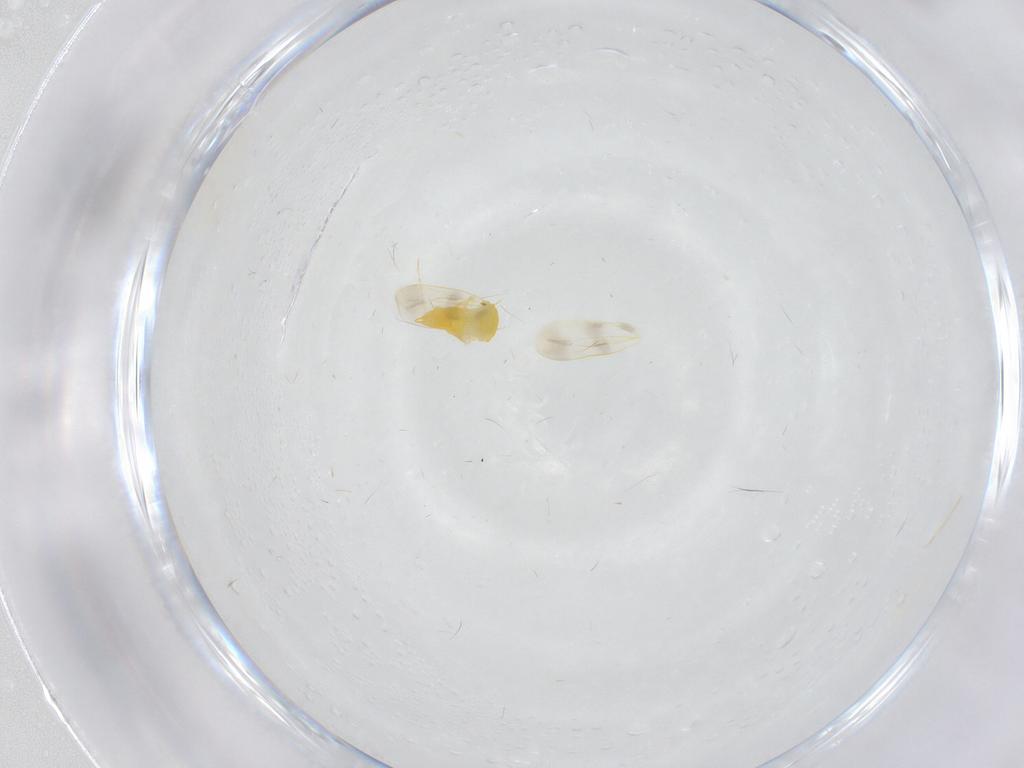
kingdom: Animalia
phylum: Arthropoda
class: Insecta
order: Hemiptera
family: Aleyrodidae
